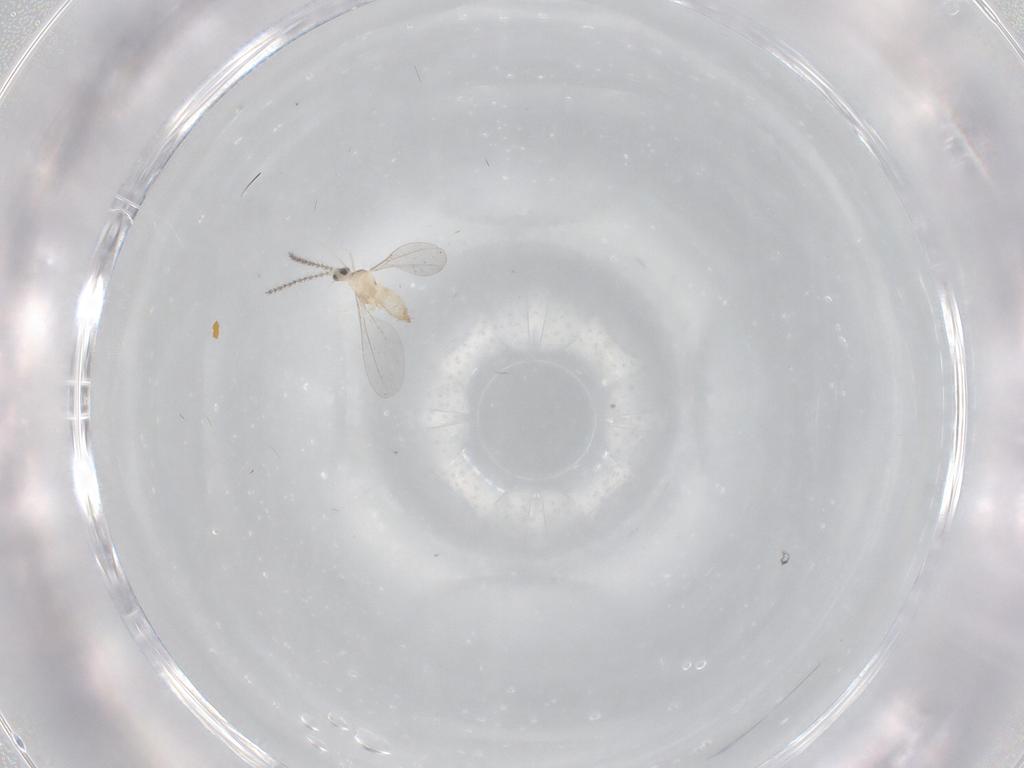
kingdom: Animalia
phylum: Arthropoda
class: Insecta
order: Diptera
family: Cecidomyiidae
